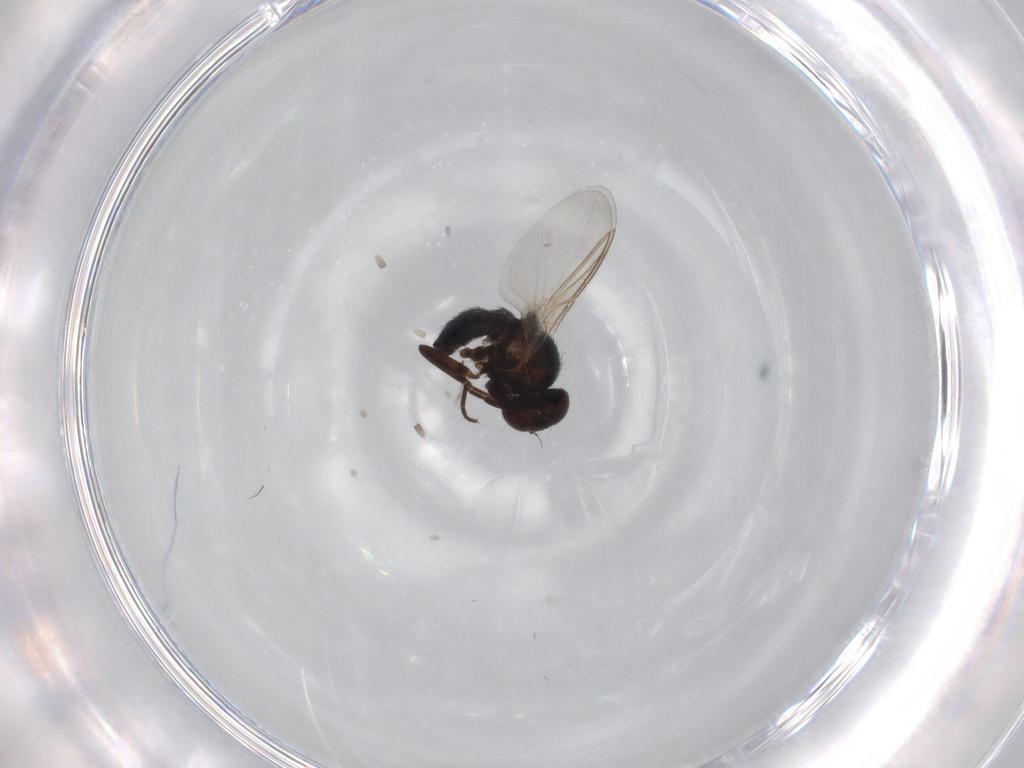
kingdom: Animalia
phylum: Arthropoda
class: Insecta
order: Diptera
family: Agromyzidae
